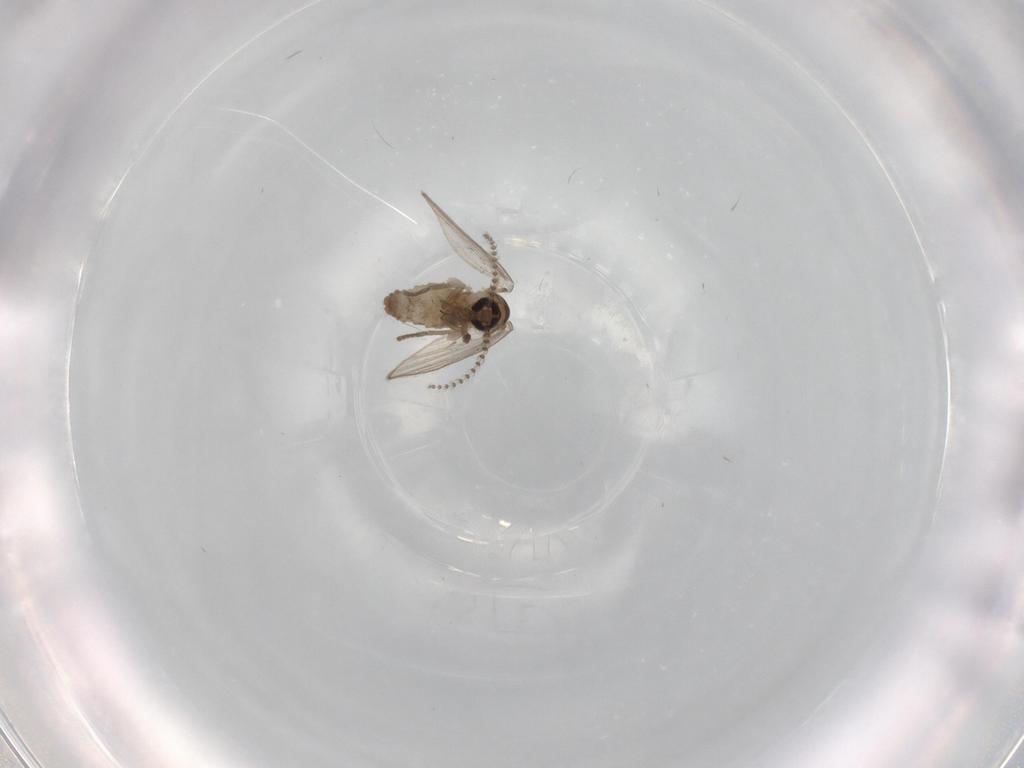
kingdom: Animalia
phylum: Arthropoda
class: Insecta
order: Diptera
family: Psychodidae
